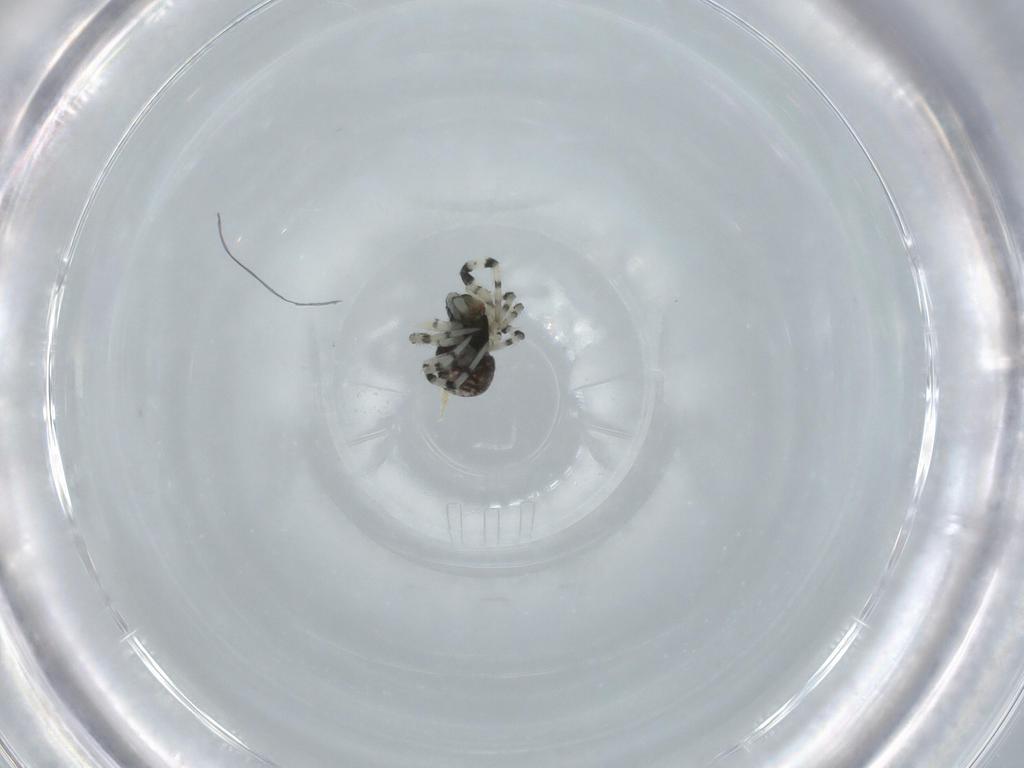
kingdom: Animalia
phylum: Arthropoda
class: Arachnida
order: Araneae
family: Mysmenidae
